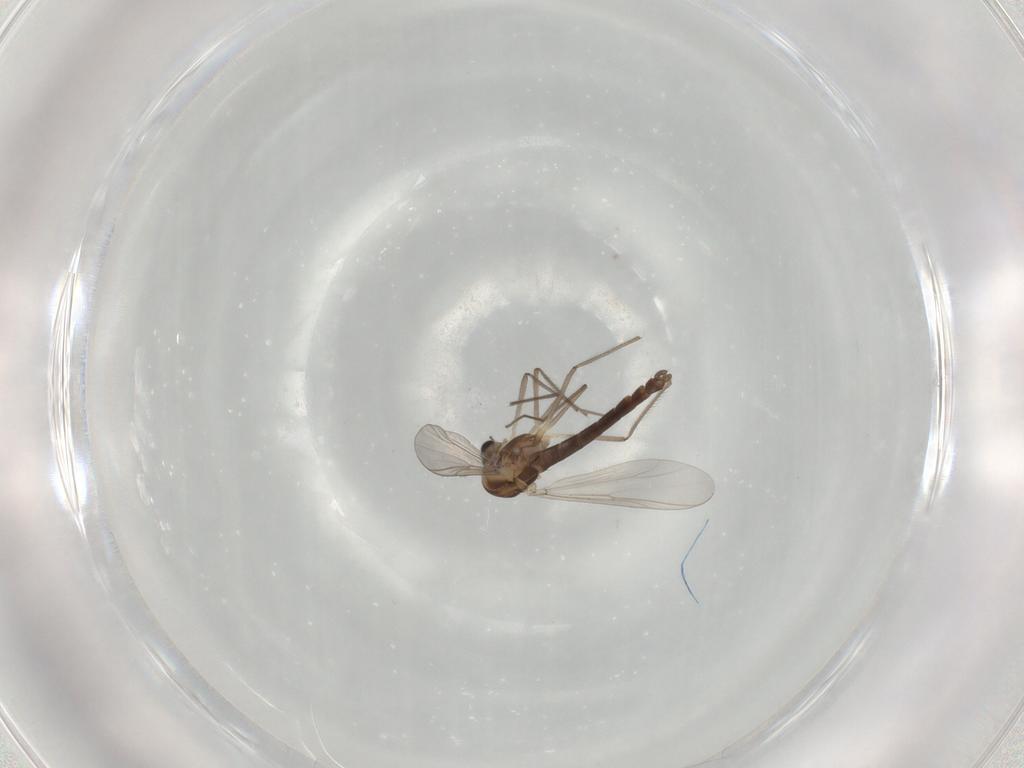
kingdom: Animalia
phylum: Arthropoda
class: Insecta
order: Diptera
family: Chironomidae
